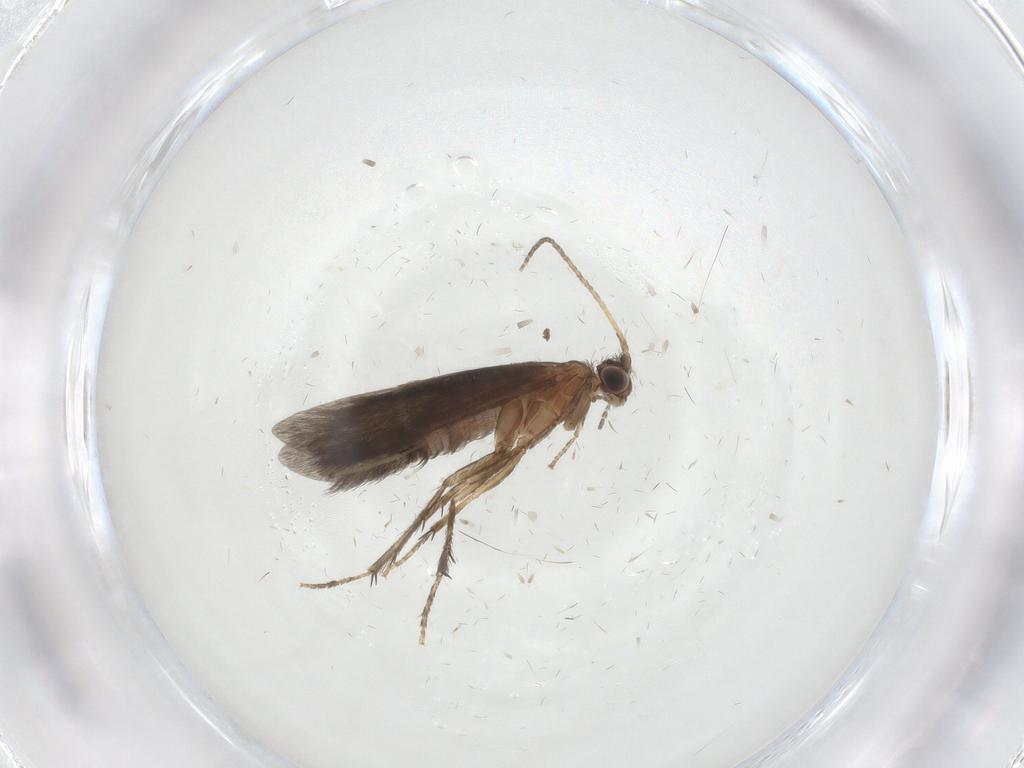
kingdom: Animalia
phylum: Arthropoda
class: Insecta
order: Trichoptera
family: Glossosomatidae
